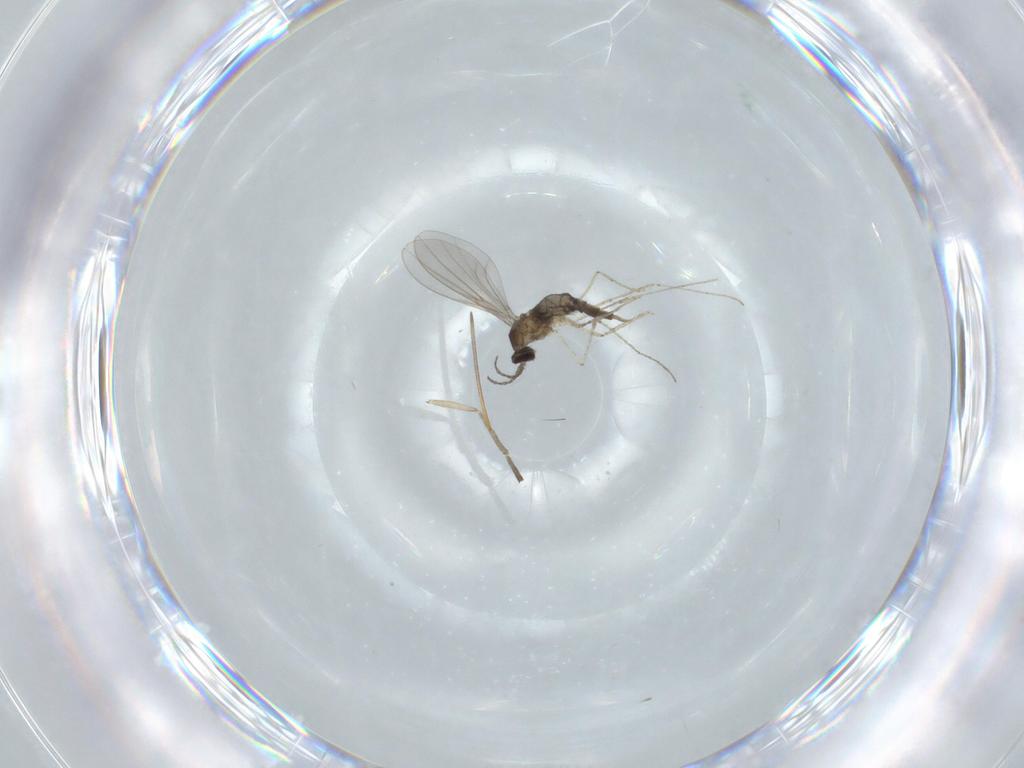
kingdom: Animalia
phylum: Arthropoda
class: Insecta
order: Diptera
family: Cecidomyiidae
